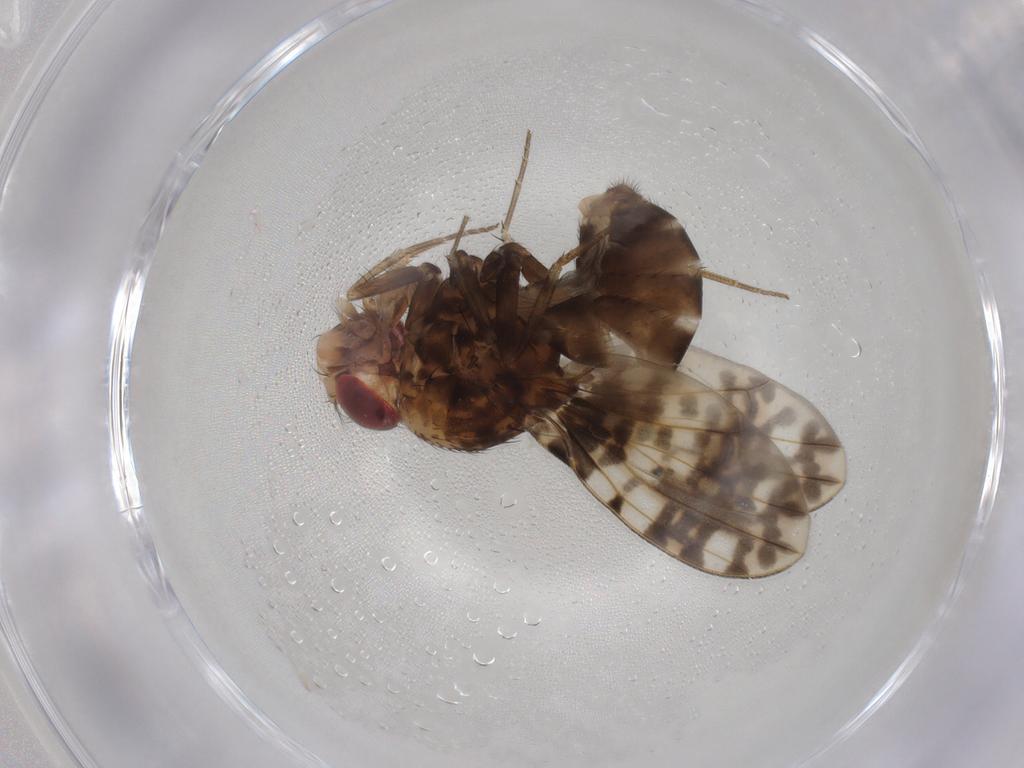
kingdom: Animalia
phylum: Arthropoda
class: Insecta
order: Diptera
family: Drosophilidae
